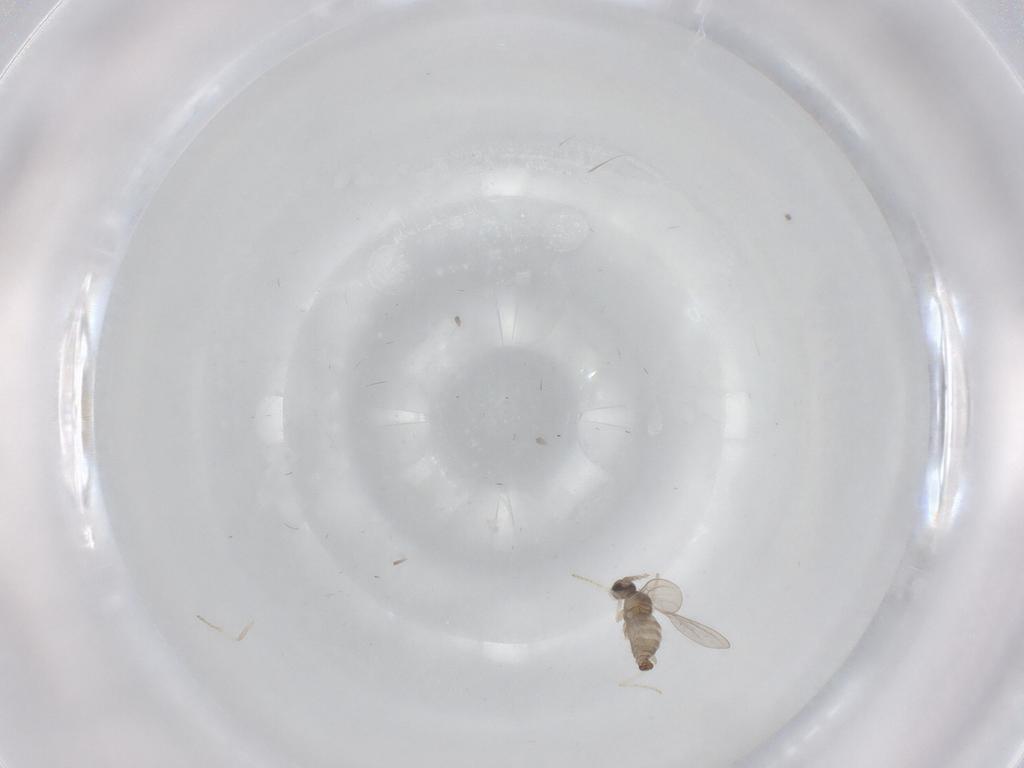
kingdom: Animalia
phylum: Arthropoda
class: Insecta
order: Diptera
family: Cecidomyiidae
